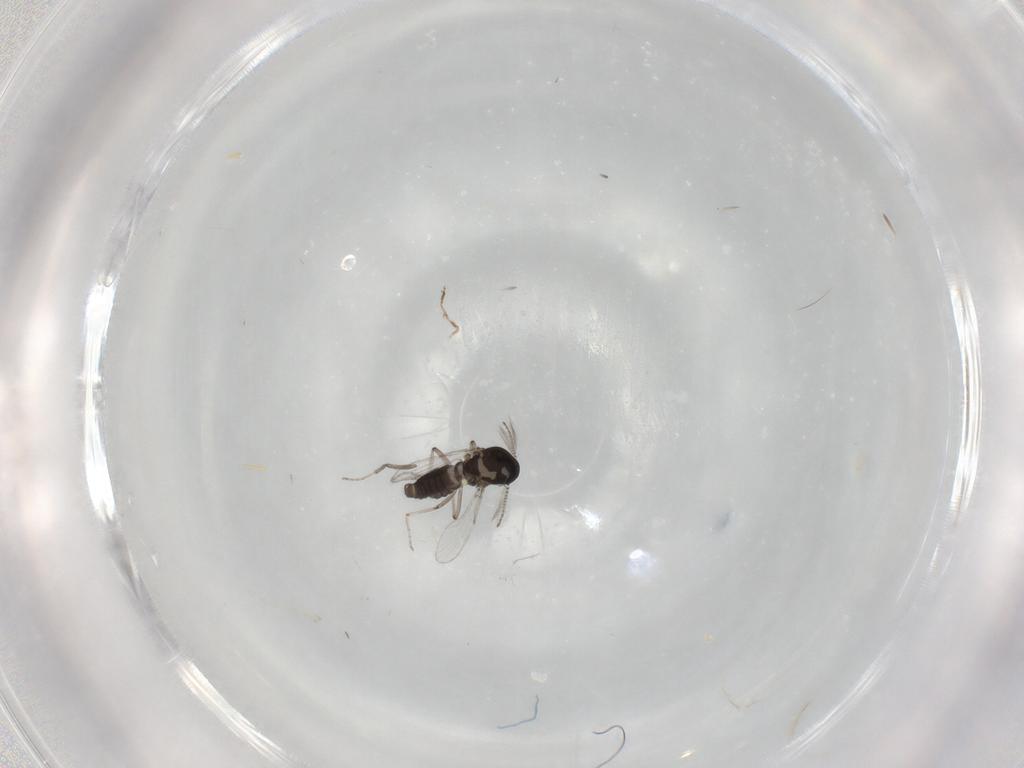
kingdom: Animalia
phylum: Arthropoda
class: Insecta
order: Diptera
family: Ceratopogonidae
